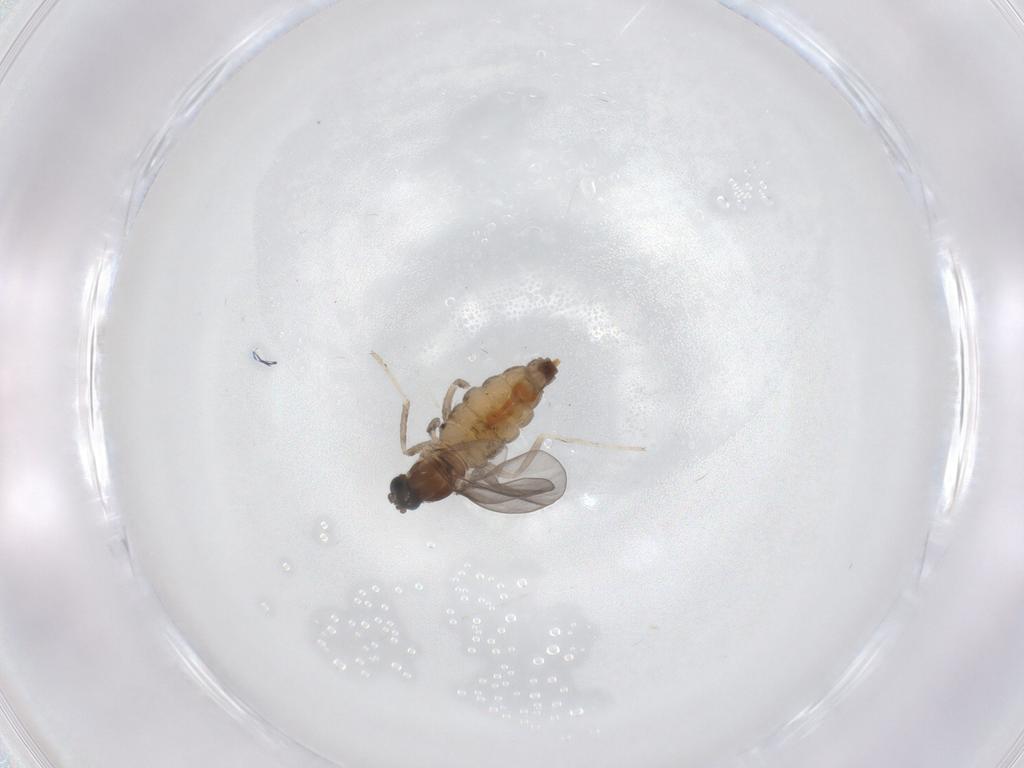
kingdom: Animalia
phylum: Arthropoda
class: Insecta
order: Diptera
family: Cecidomyiidae
